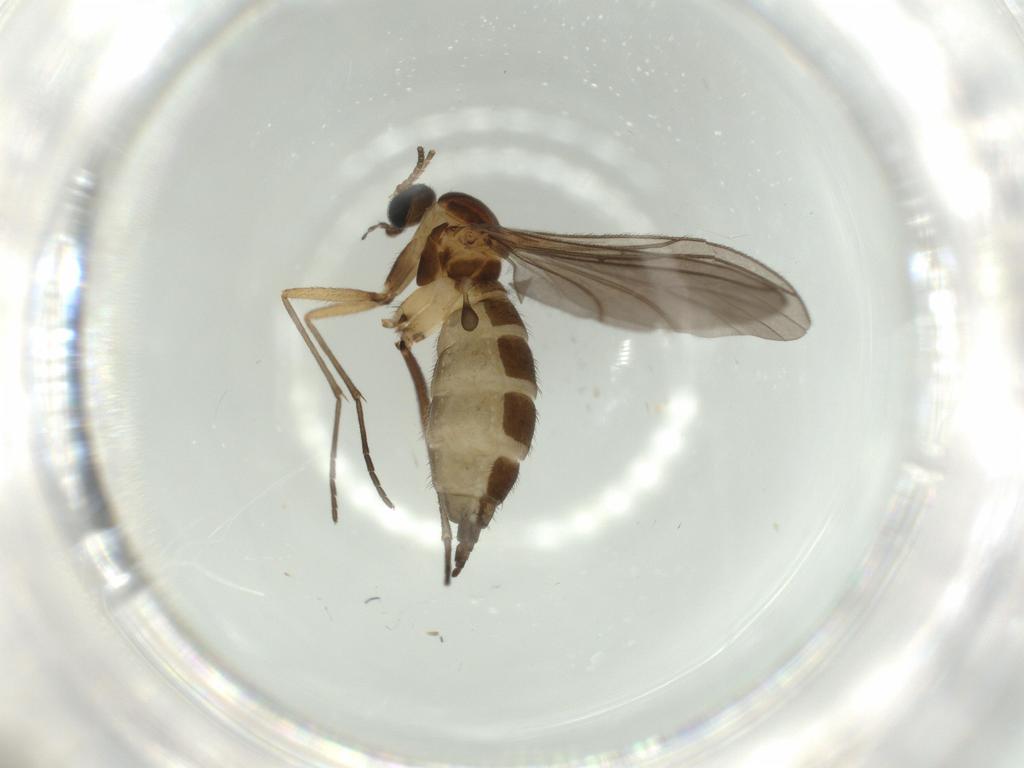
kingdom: Animalia
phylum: Arthropoda
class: Insecta
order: Diptera
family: Sciaridae
